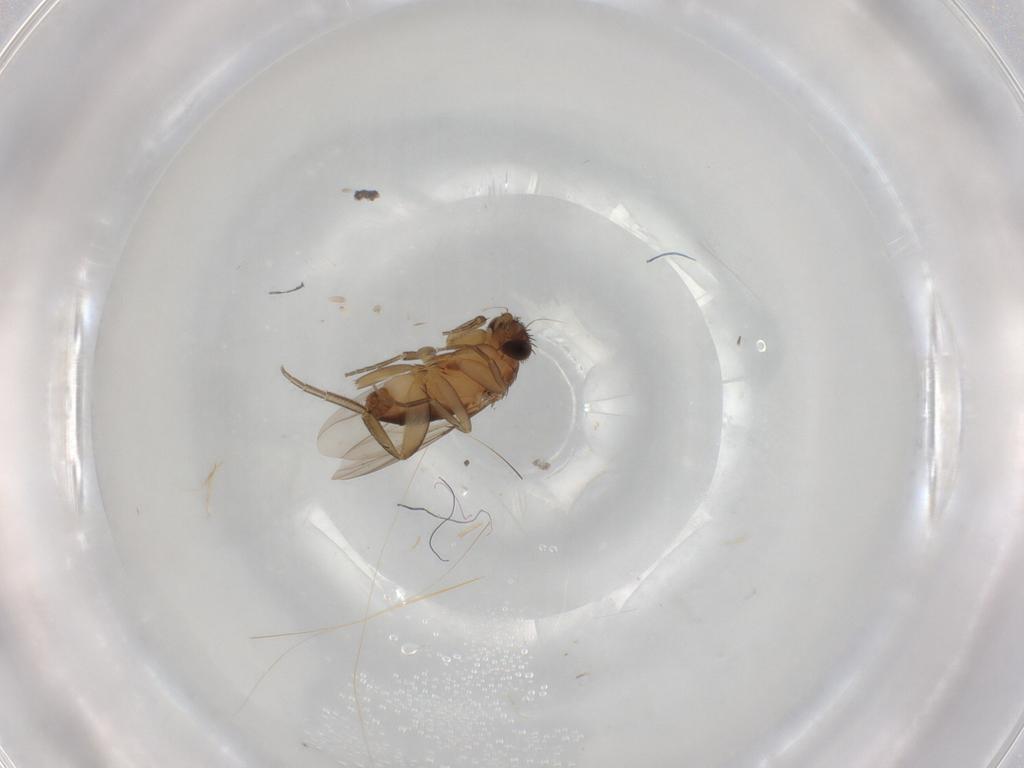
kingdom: Animalia
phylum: Arthropoda
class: Insecta
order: Diptera
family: Phoridae
